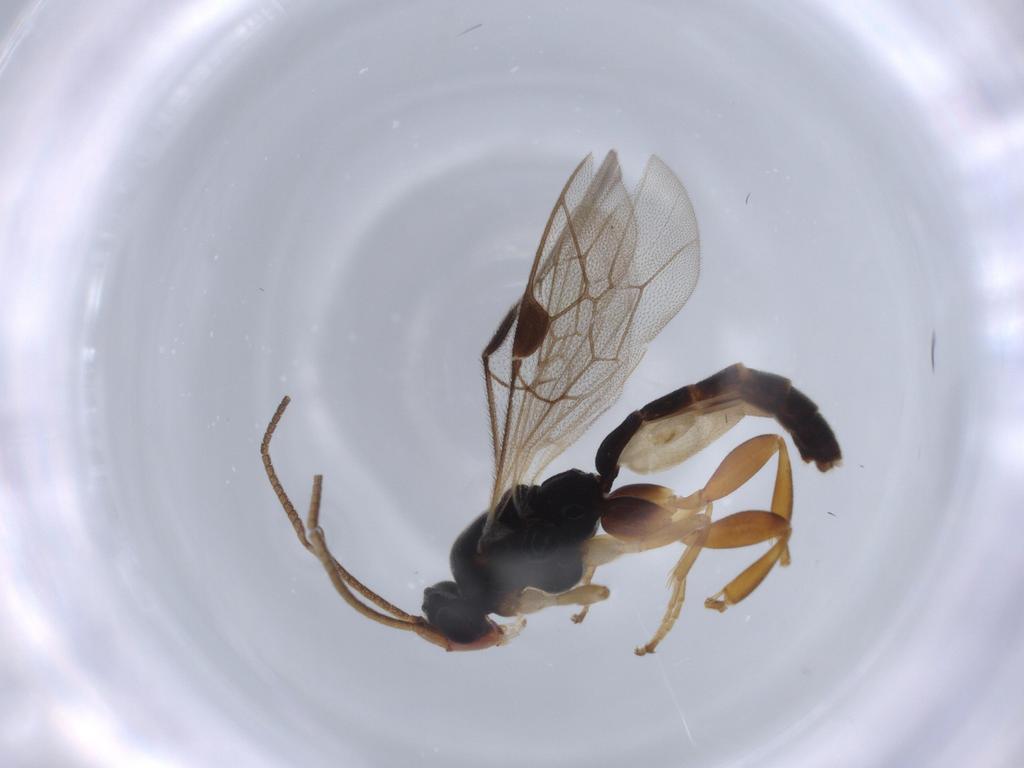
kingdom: Animalia
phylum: Arthropoda
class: Insecta
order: Hymenoptera
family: Ichneumonidae
